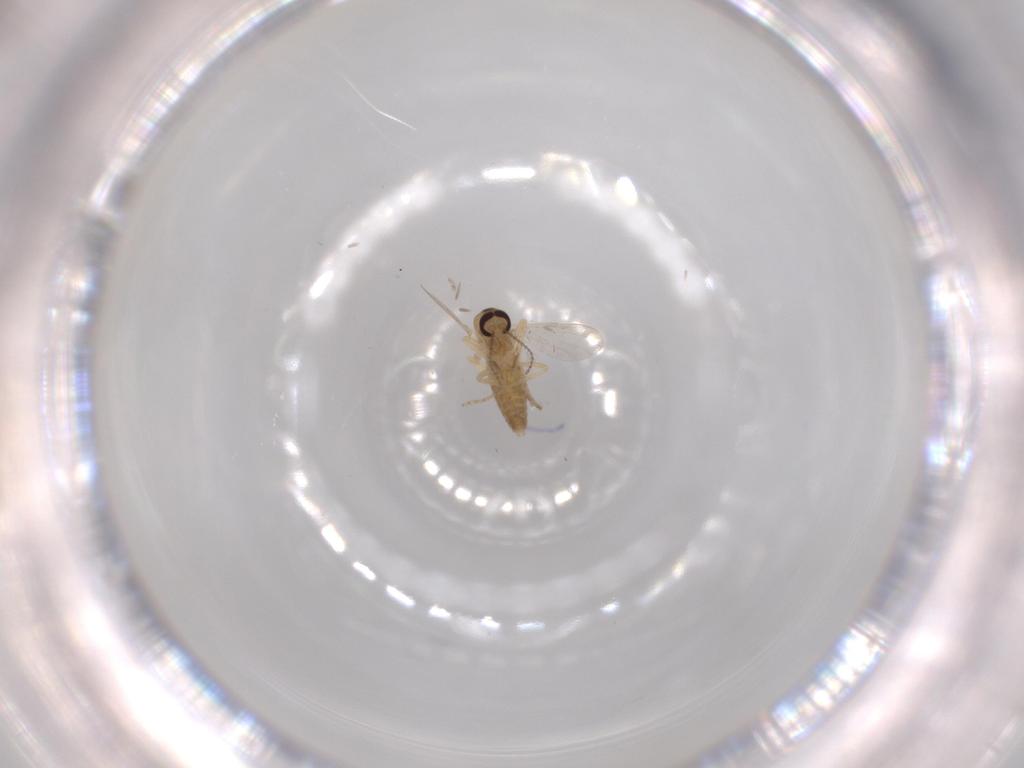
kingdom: Animalia
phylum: Arthropoda
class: Insecta
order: Diptera
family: Ceratopogonidae
